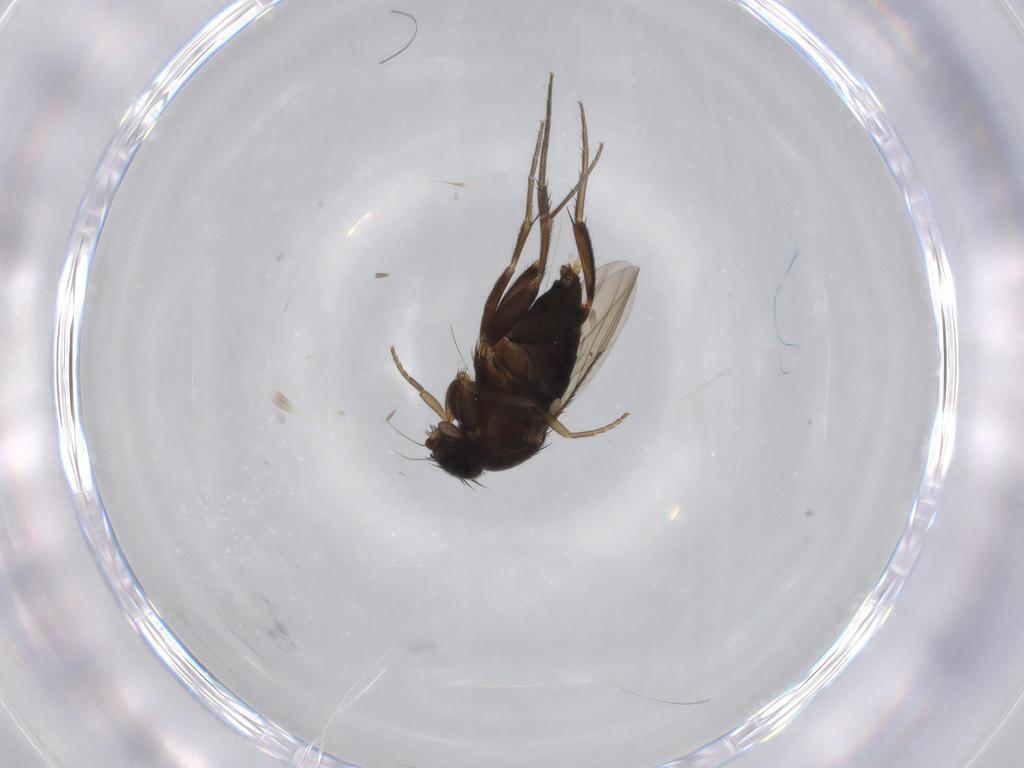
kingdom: Animalia
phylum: Arthropoda
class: Insecta
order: Diptera
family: Phoridae
